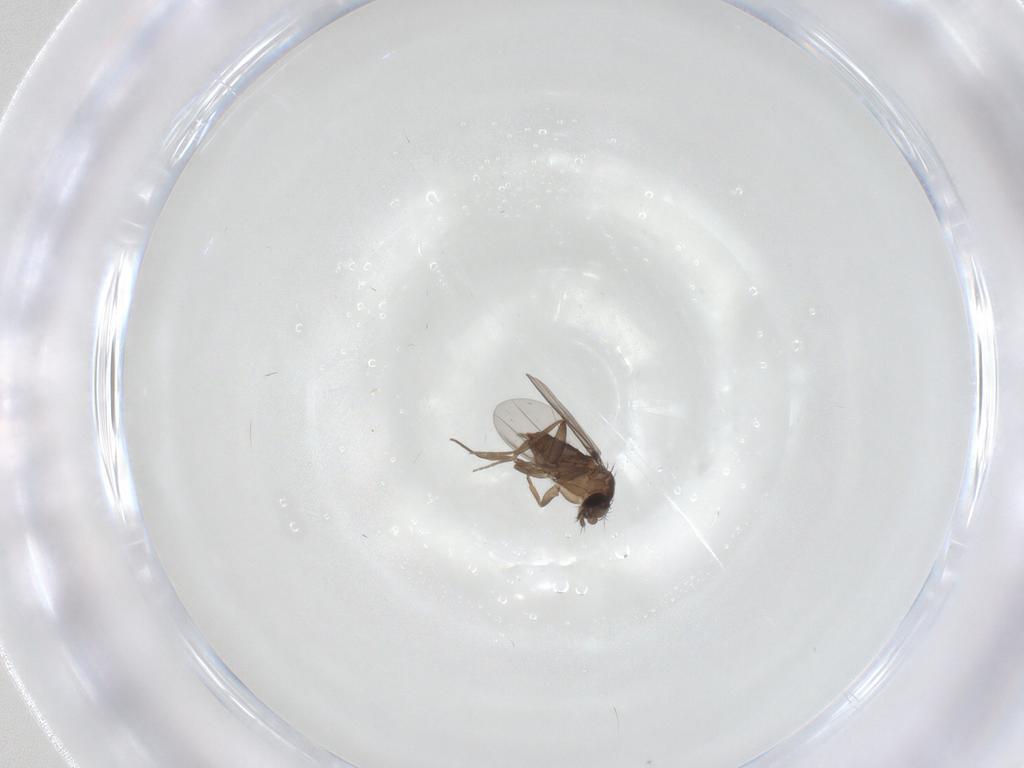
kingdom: Animalia
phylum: Arthropoda
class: Insecta
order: Diptera
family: Phoridae
